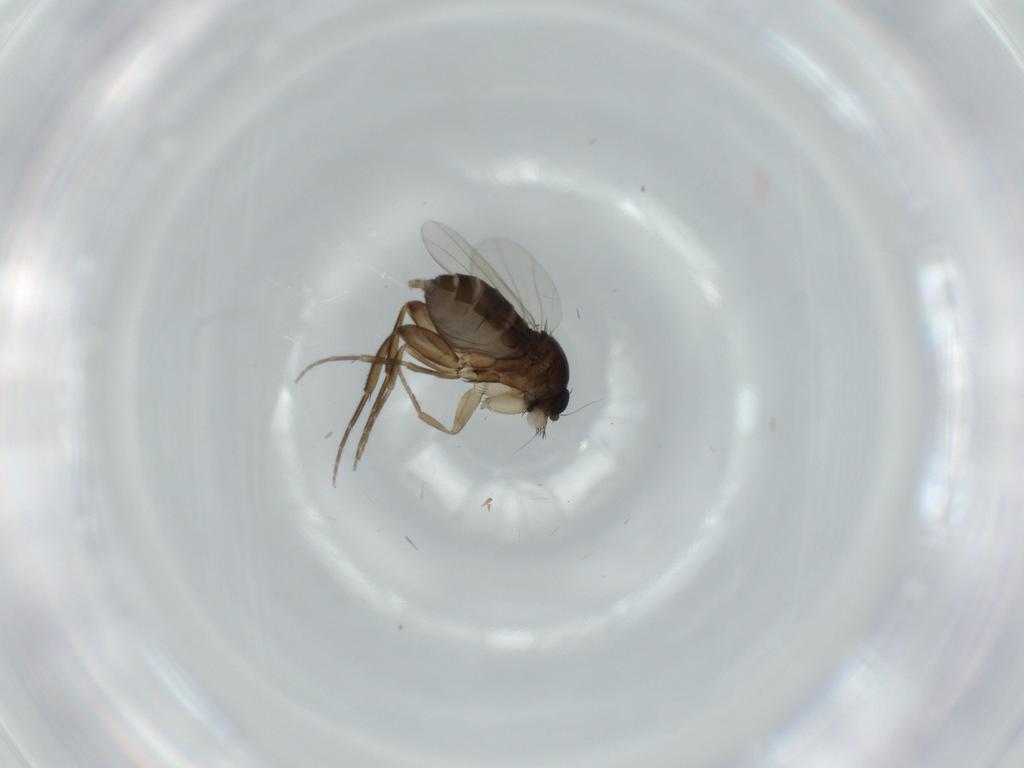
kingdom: Animalia
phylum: Arthropoda
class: Insecta
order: Diptera
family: Phoridae
